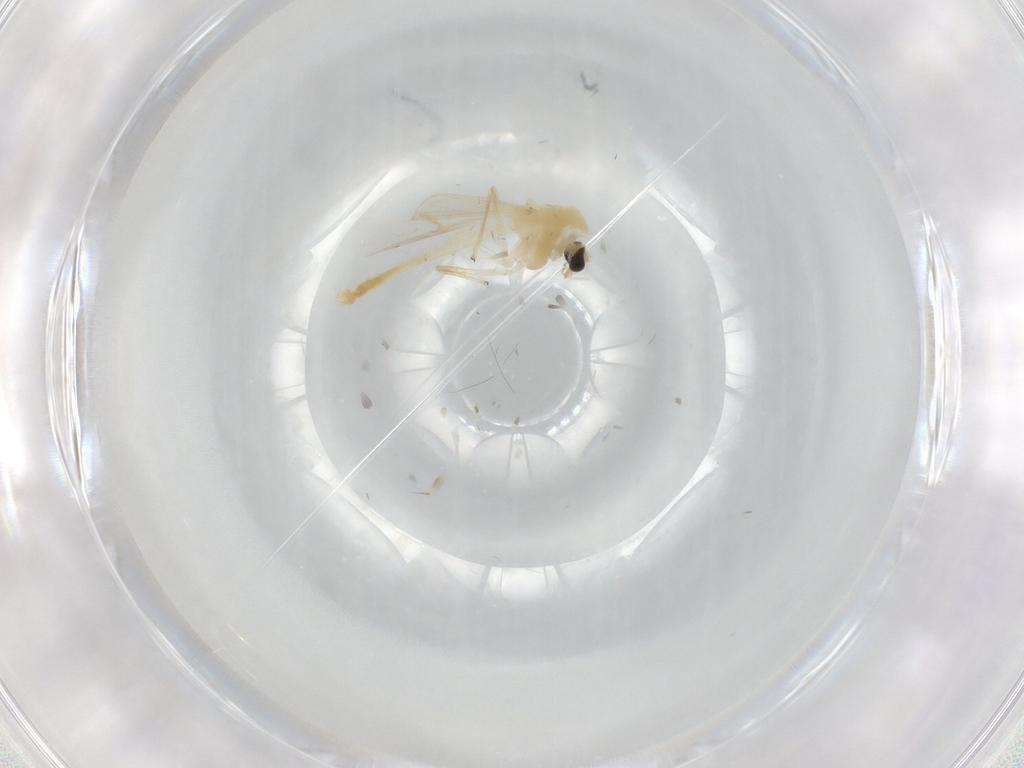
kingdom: Animalia
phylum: Arthropoda
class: Insecta
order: Diptera
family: Chironomidae
